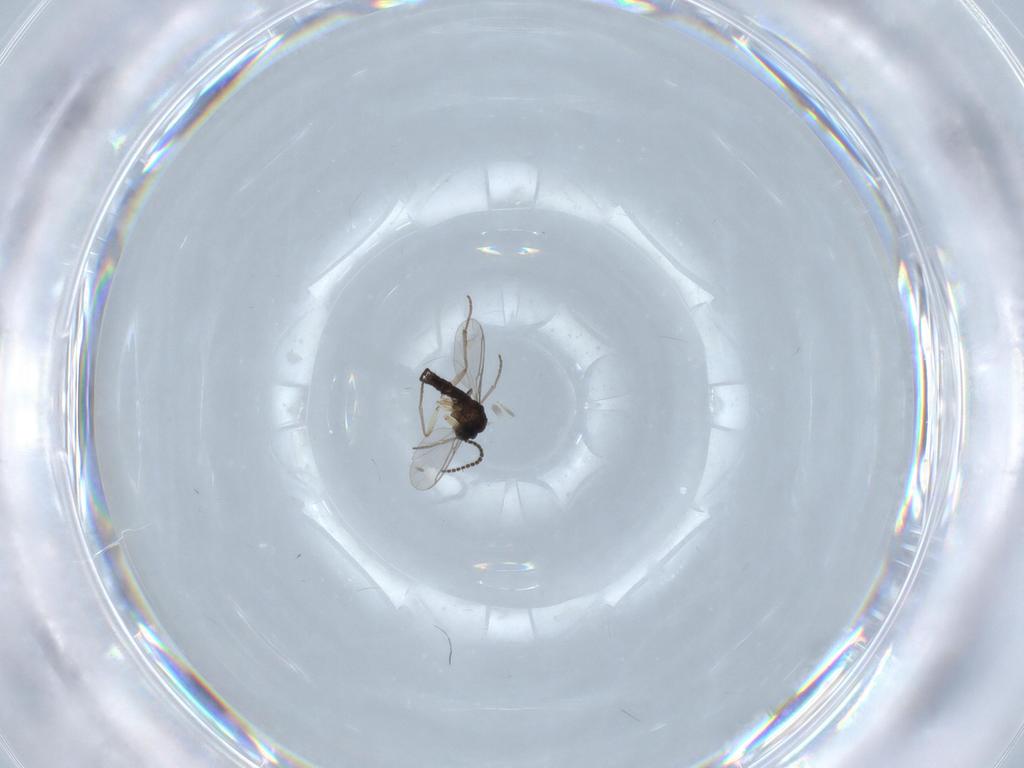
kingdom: Animalia
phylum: Arthropoda
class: Insecta
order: Diptera
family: Sciaridae
